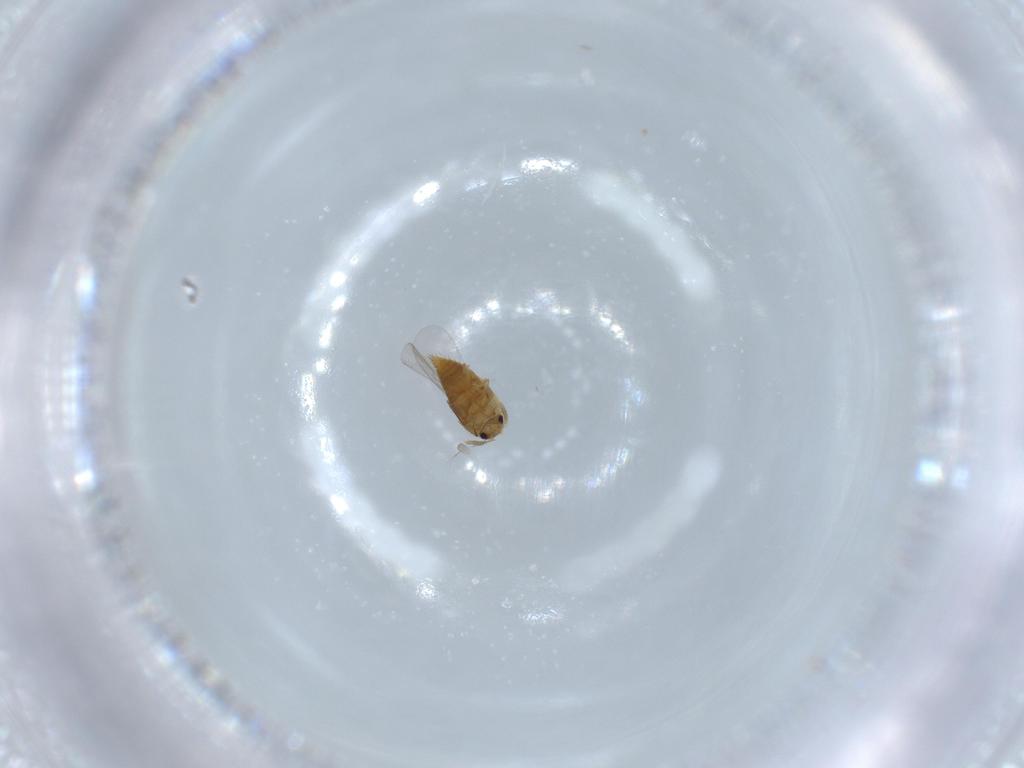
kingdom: Animalia
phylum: Arthropoda
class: Insecta
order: Coleoptera
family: Staphylinidae
